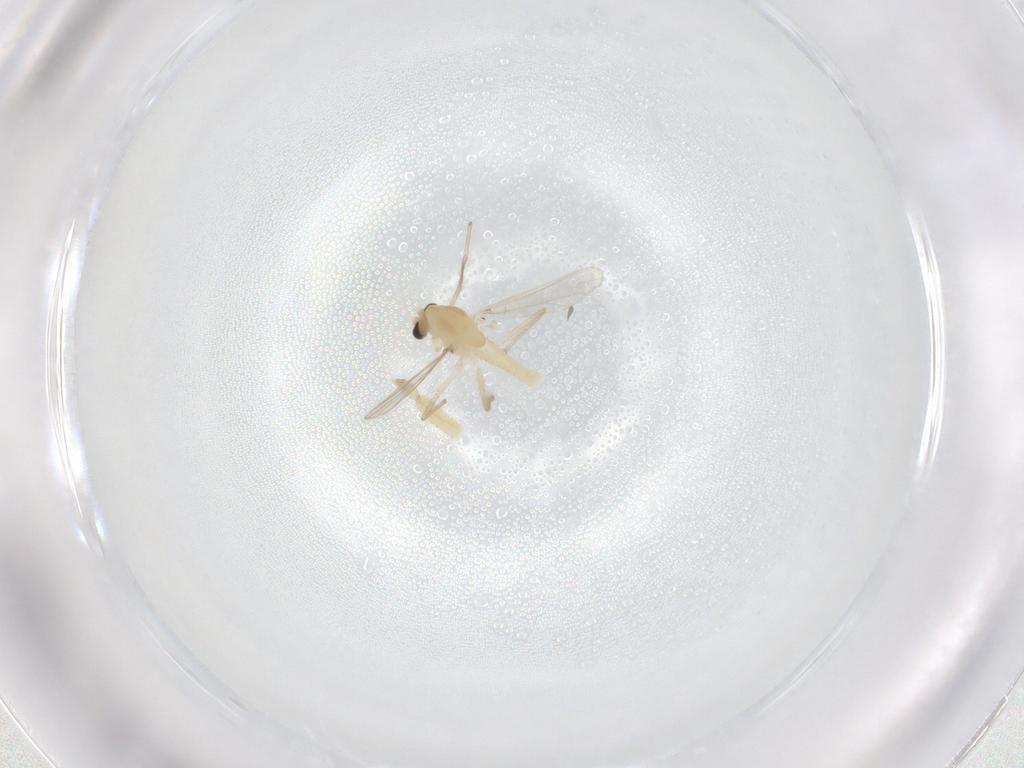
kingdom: Animalia
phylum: Arthropoda
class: Insecta
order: Diptera
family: Chironomidae
